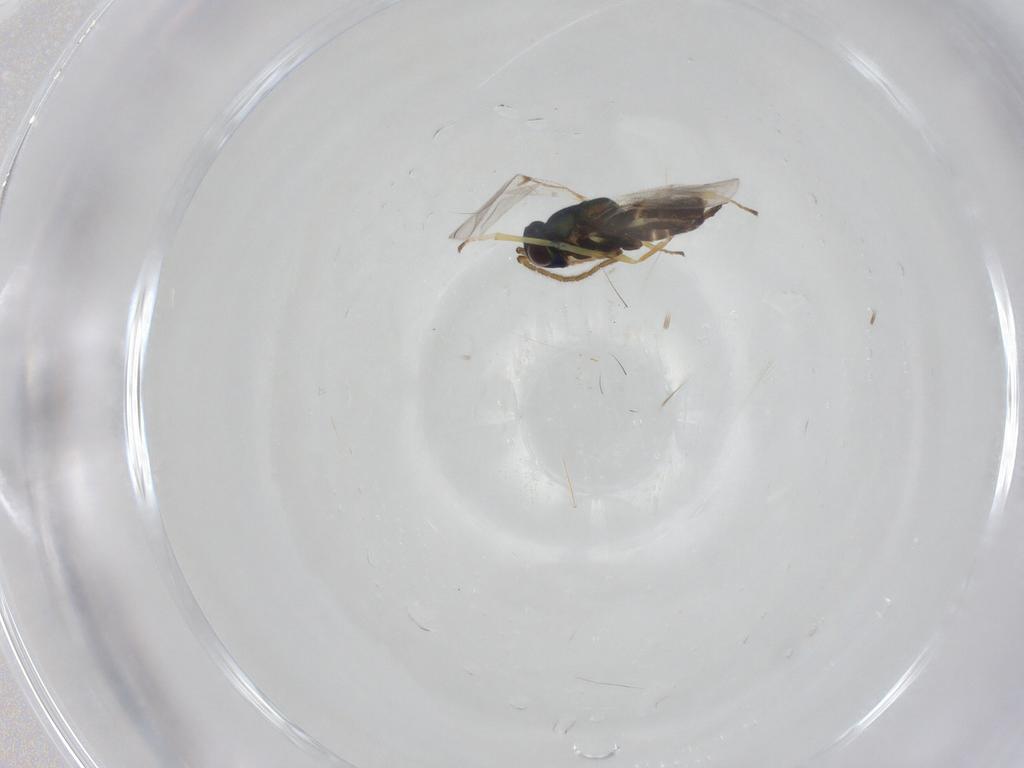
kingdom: Animalia
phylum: Arthropoda
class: Insecta
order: Hymenoptera
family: Encyrtidae
